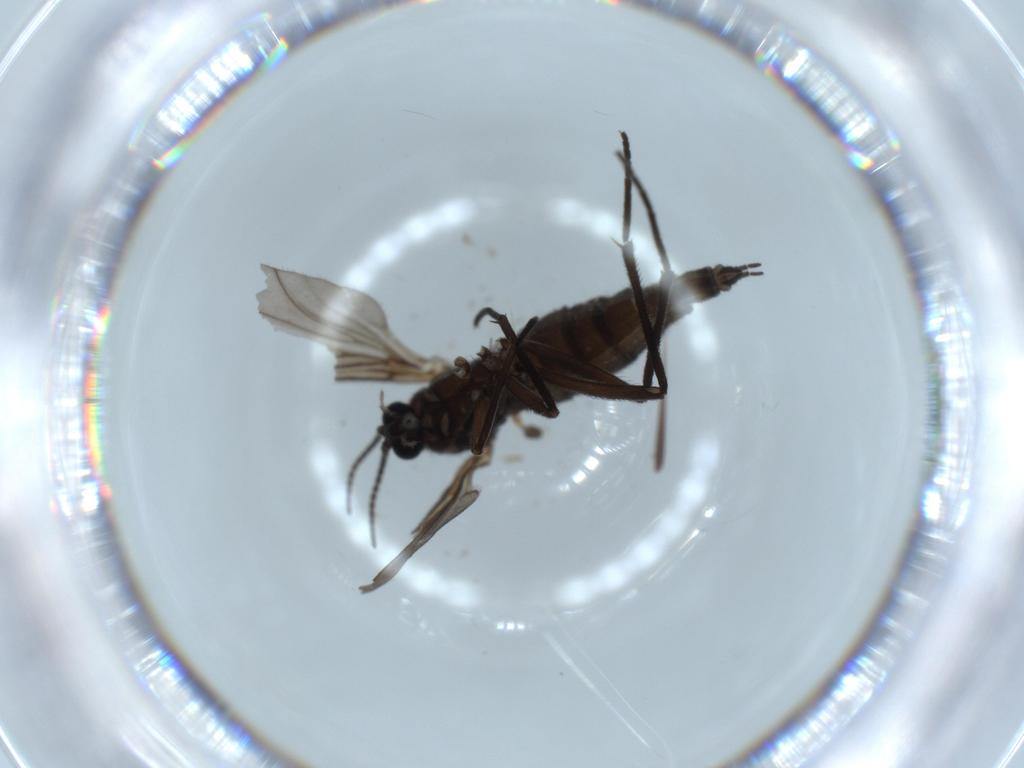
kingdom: Animalia
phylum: Arthropoda
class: Insecta
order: Diptera
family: Sciaridae
